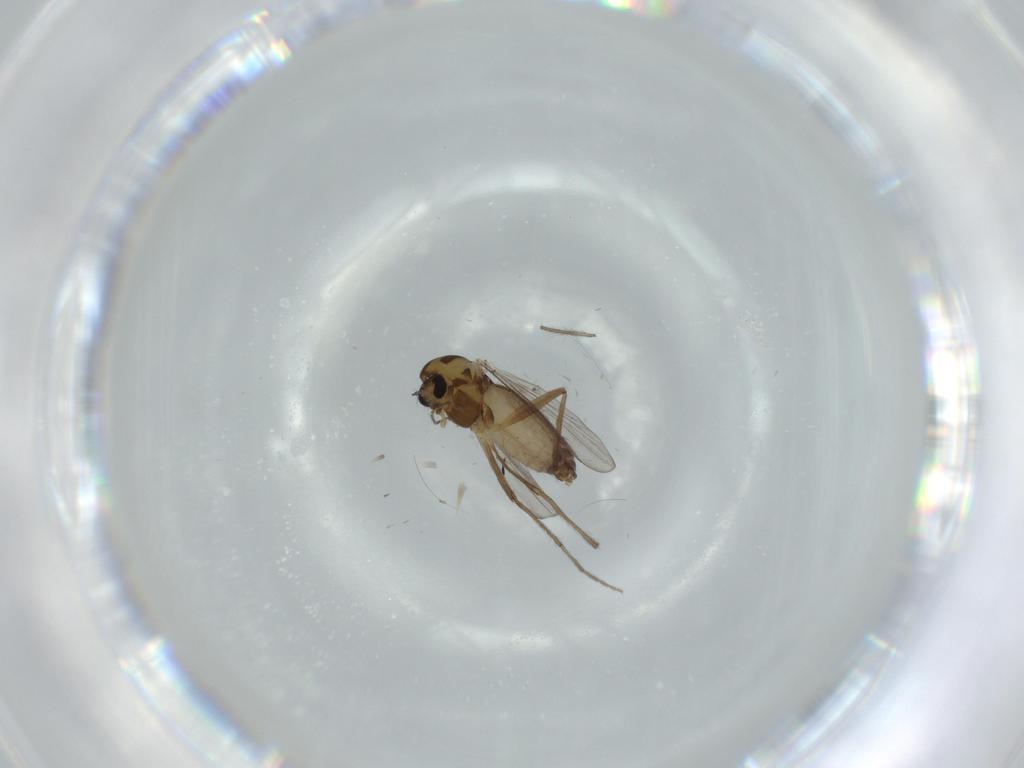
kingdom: Animalia
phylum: Arthropoda
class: Insecta
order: Diptera
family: Chironomidae
